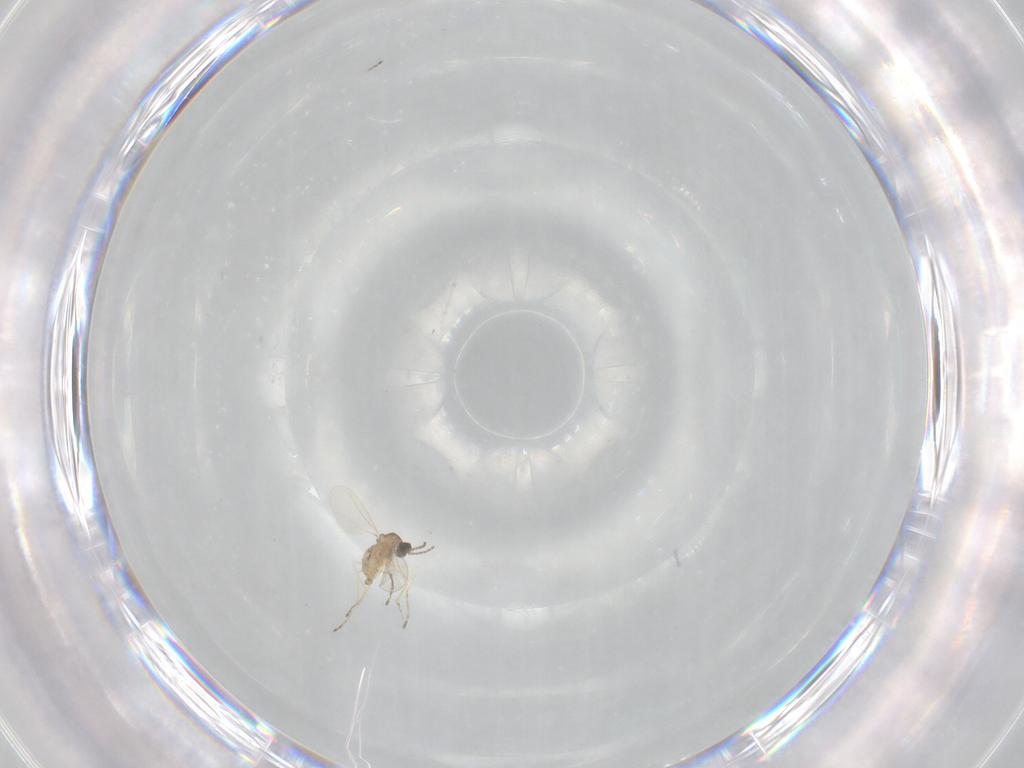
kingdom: Animalia
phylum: Arthropoda
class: Insecta
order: Diptera
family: Cecidomyiidae
